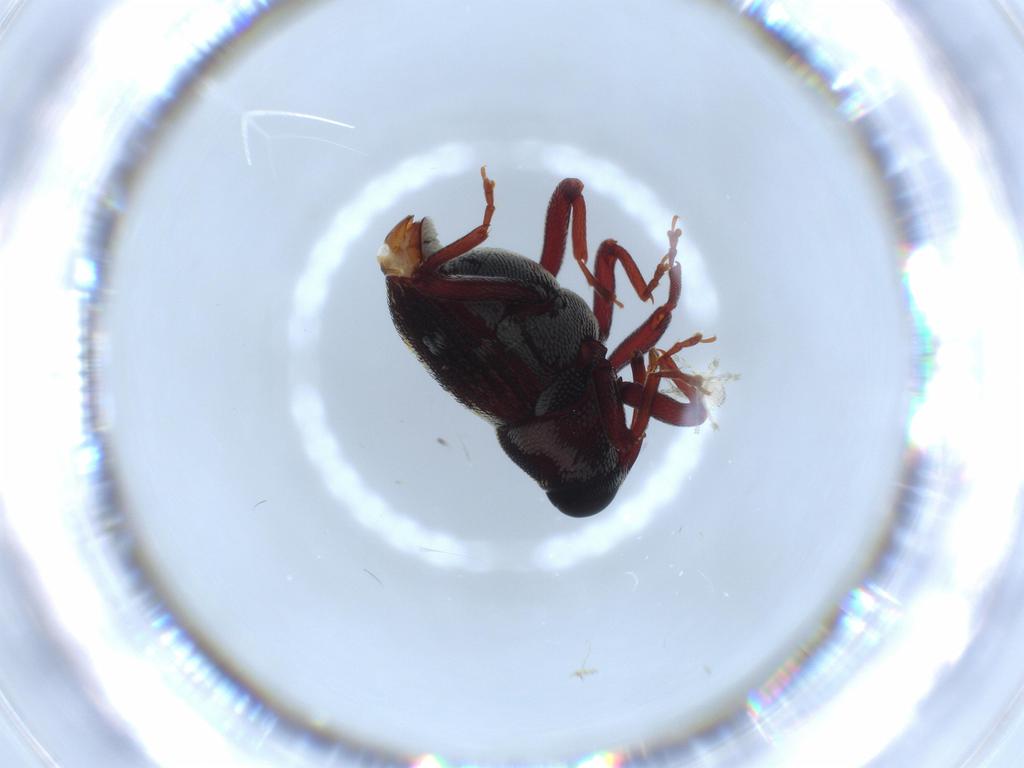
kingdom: Animalia
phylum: Arthropoda
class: Insecta
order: Coleoptera
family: Curculionidae
